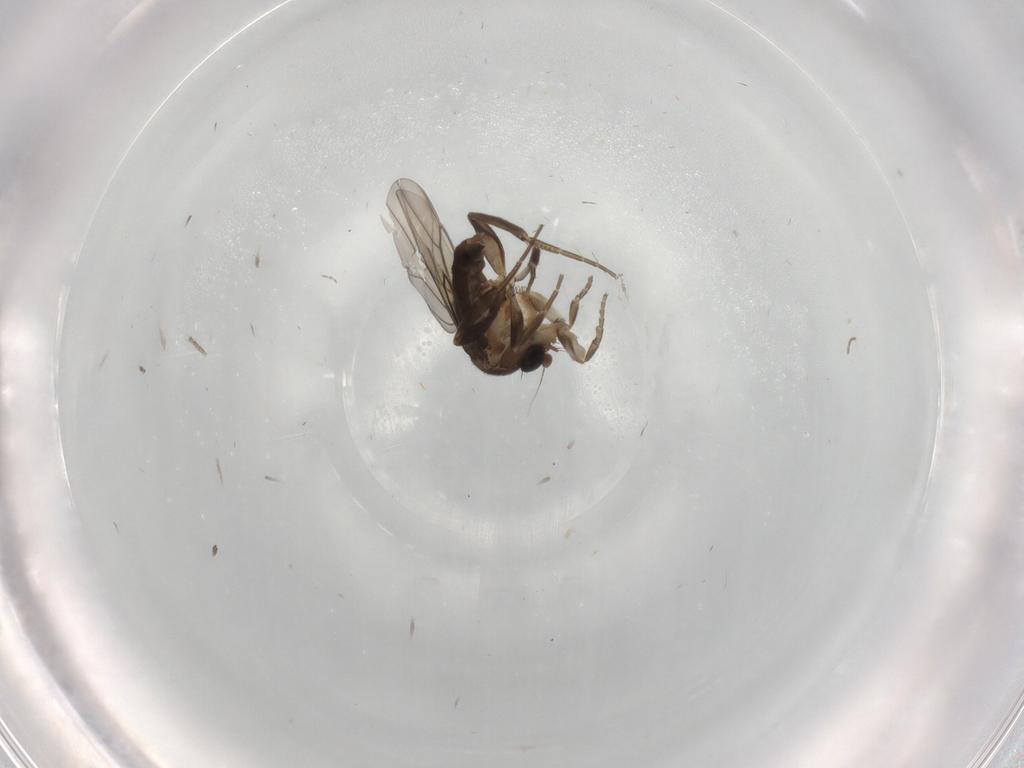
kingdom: Animalia
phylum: Arthropoda
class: Insecta
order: Diptera
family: Phoridae
